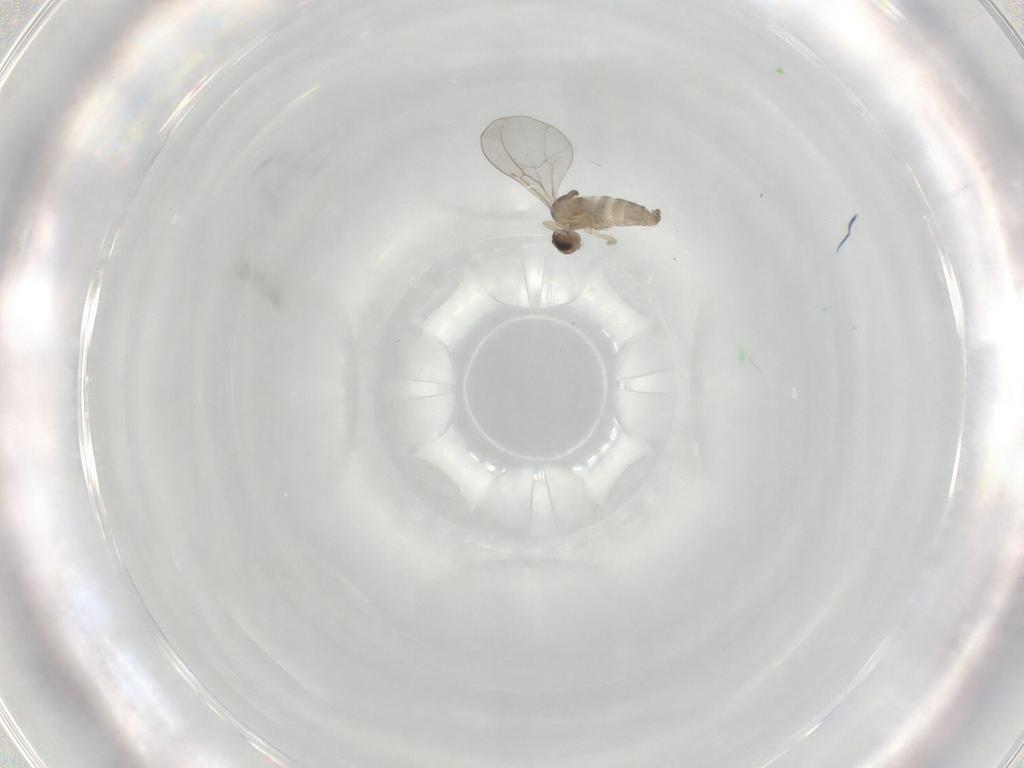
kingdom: Animalia
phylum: Arthropoda
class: Insecta
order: Diptera
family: Cecidomyiidae
